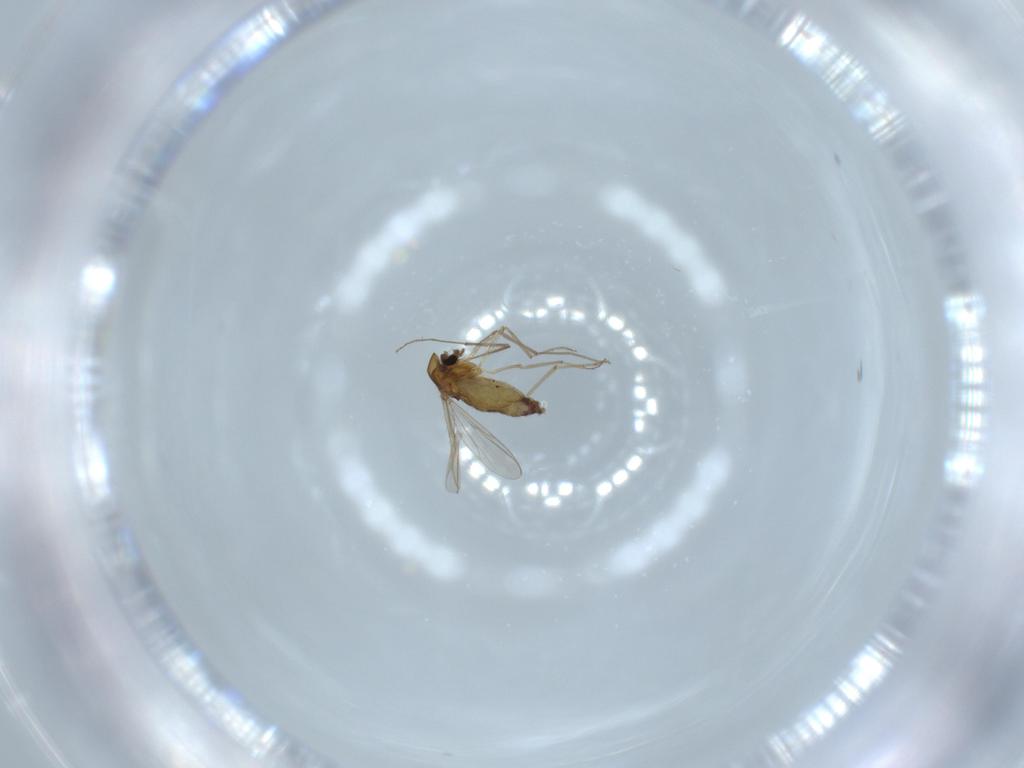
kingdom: Animalia
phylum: Arthropoda
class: Insecta
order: Diptera
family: Chironomidae
